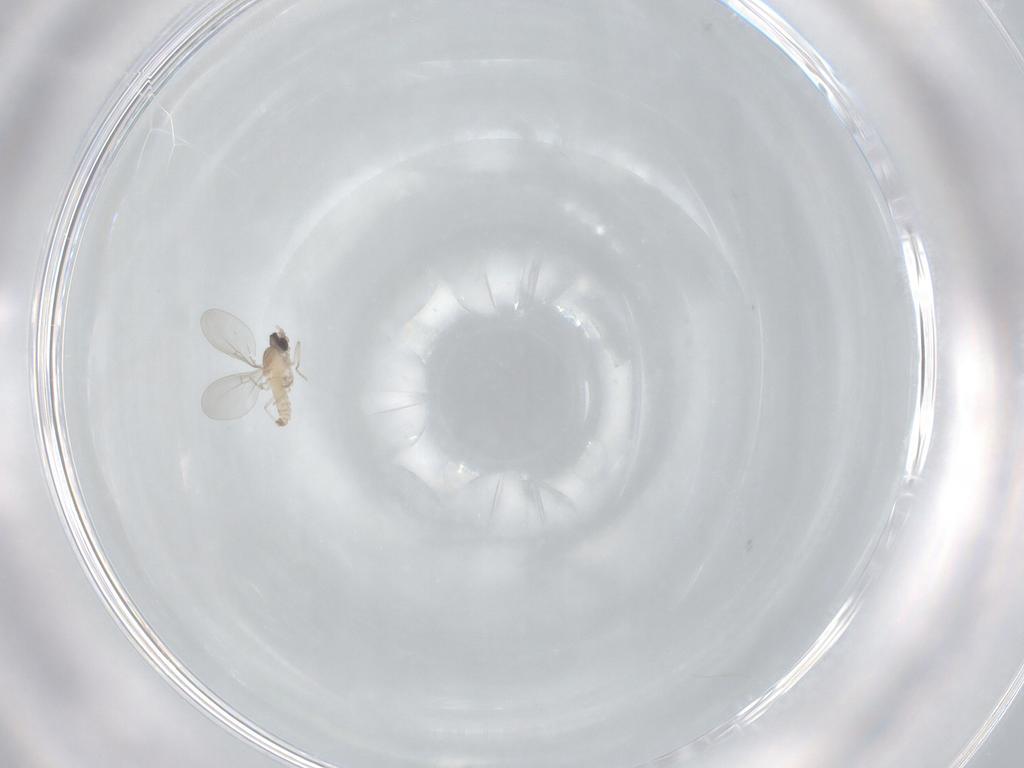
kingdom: Animalia
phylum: Arthropoda
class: Insecta
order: Diptera
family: Cecidomyiidae
